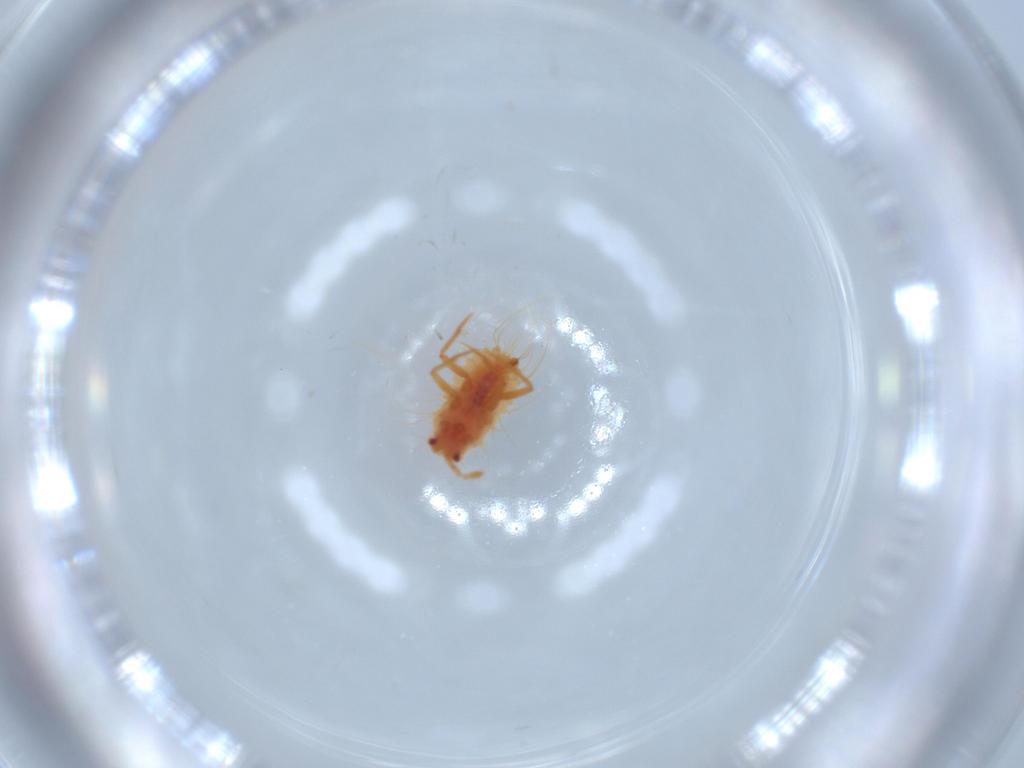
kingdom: Animalia
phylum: Arthropoda
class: Insecta
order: Hemiptera
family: Monophlebidae
